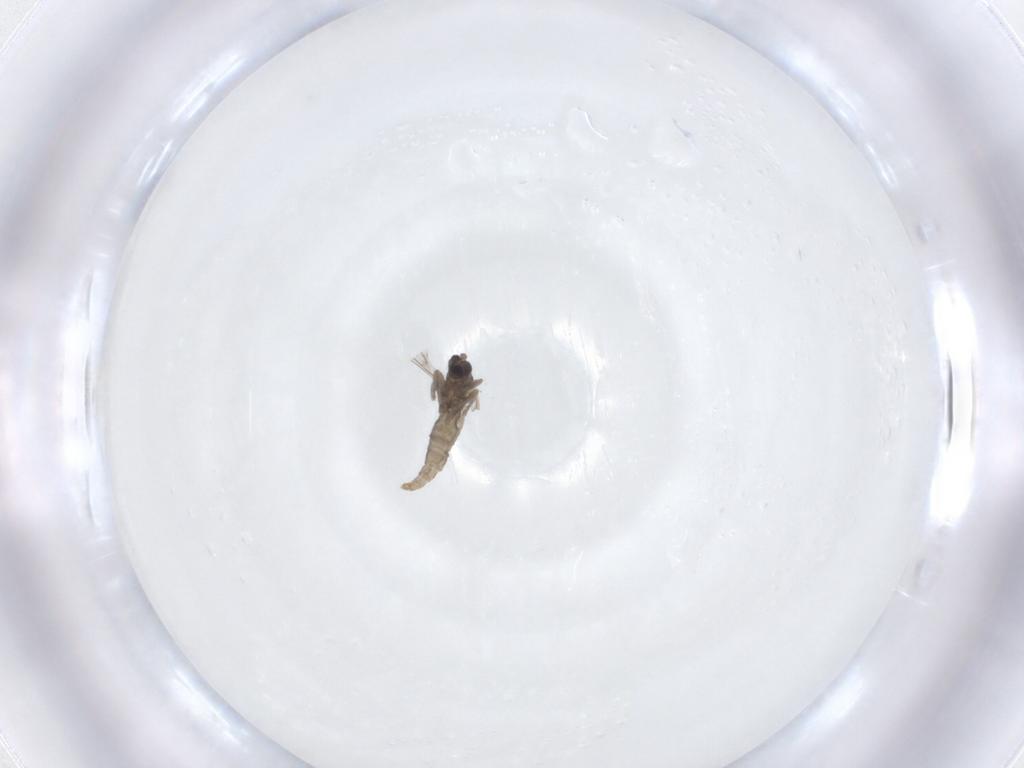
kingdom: Animalia
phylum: Arthropoda
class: Insecta
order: Diptera
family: Cecidomyiidae
